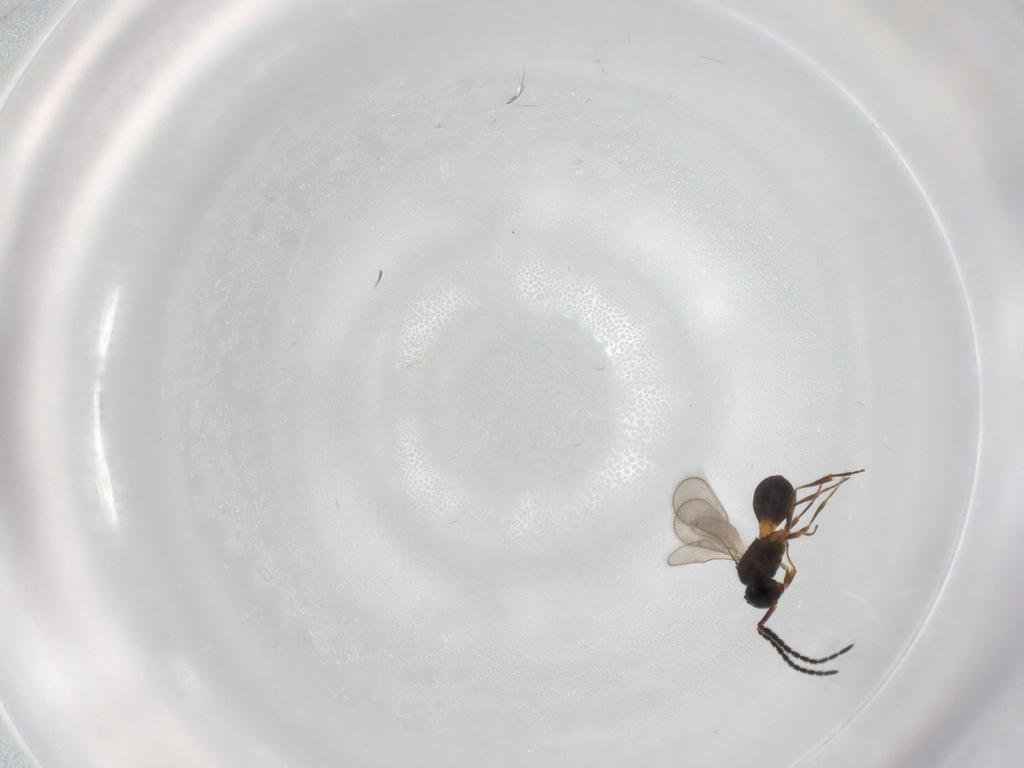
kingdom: Animalia
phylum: Arthropoda
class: Insecta
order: Hymenoptera
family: Scelionidae
